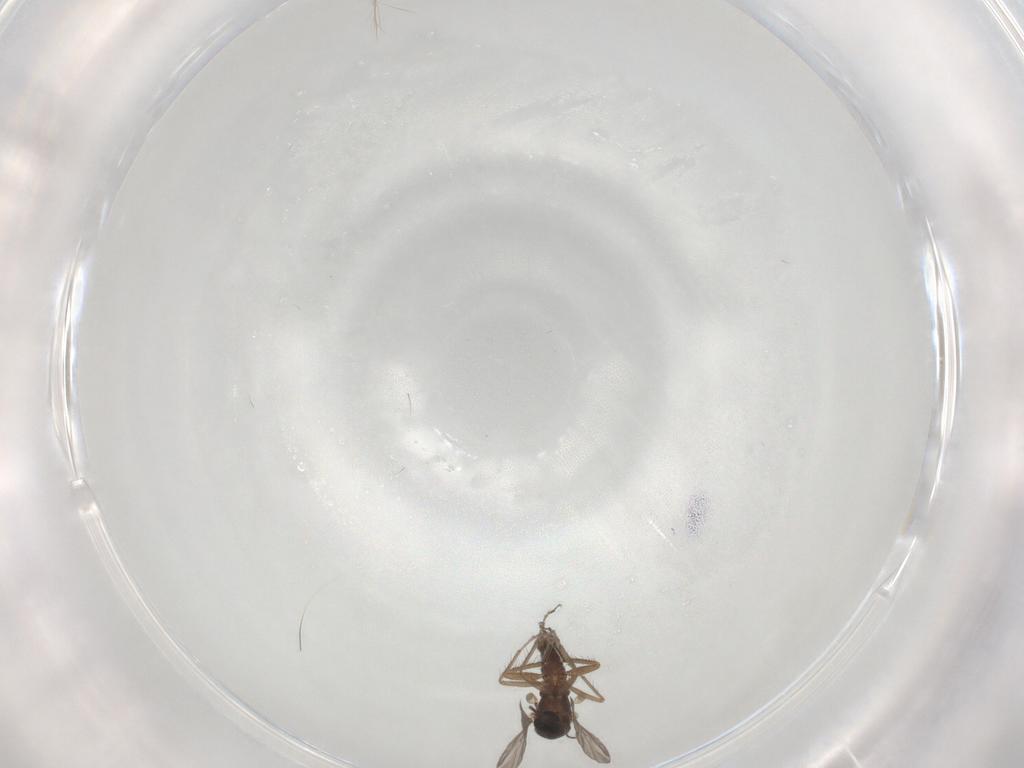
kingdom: Animalia
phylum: Arthropoda
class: Insecta
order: Diptera
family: Ceratopogonidae
